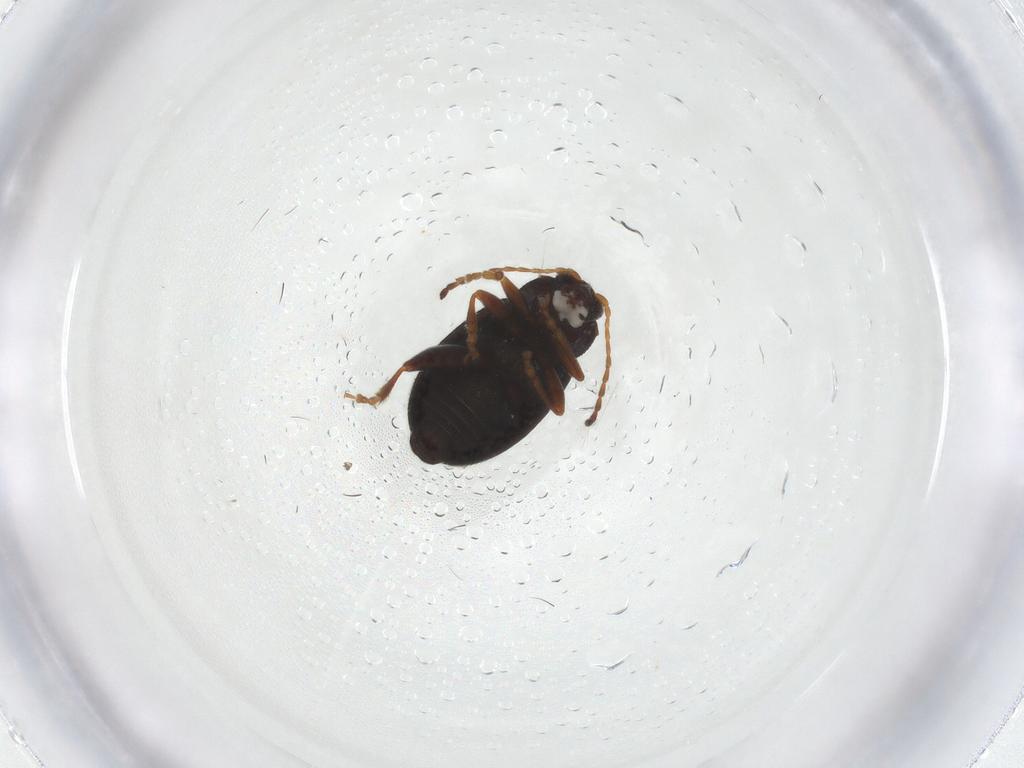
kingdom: Animalia
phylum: Arthropoda
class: Insecta
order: Coleoptera
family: Chrysomelidae
